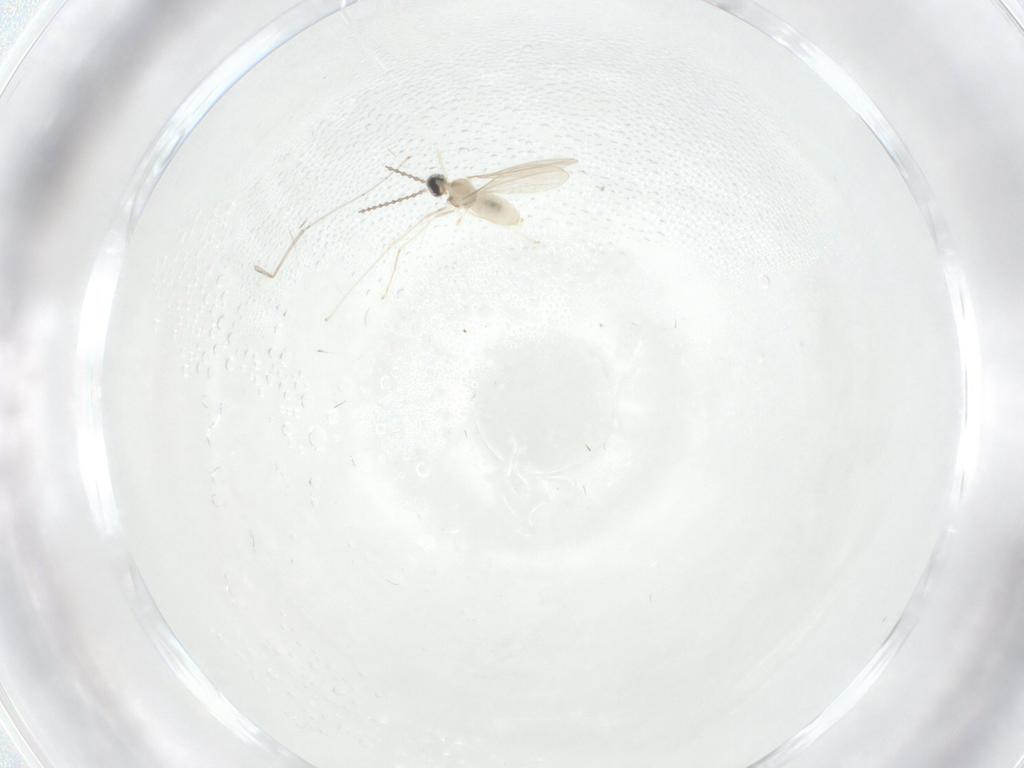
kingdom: Animalia
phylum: Arthropoda
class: Insecta
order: Diptera
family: Cecidomyiidae
